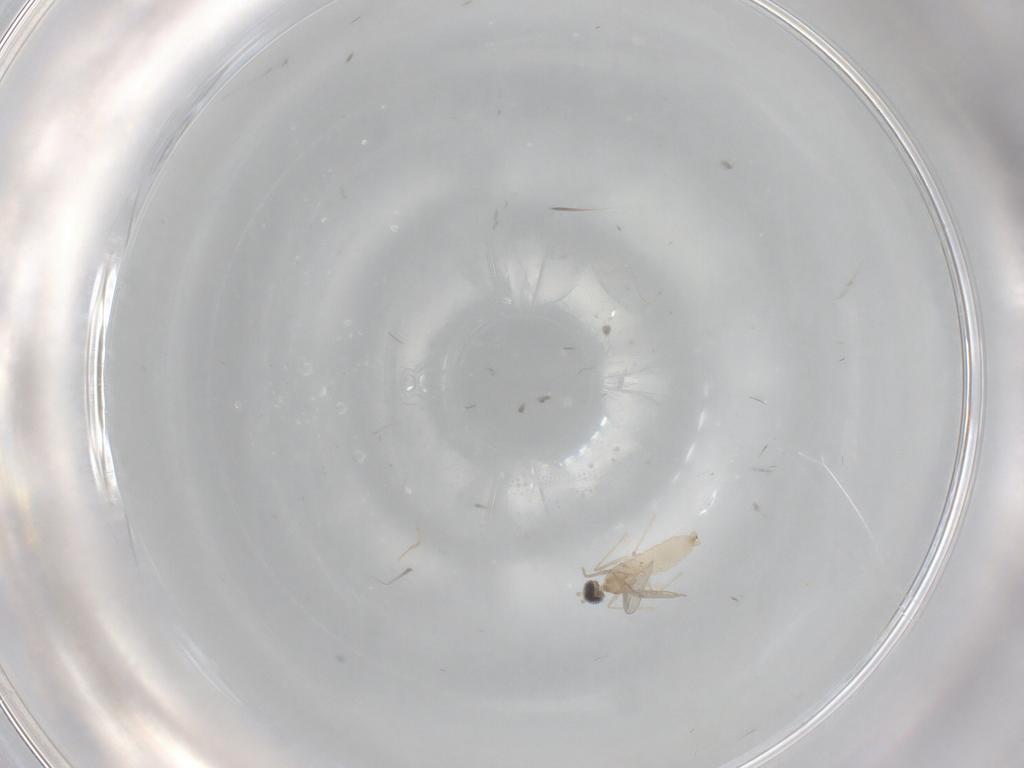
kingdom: Animalia
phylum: Arthropoda
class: Insecta
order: Diptera
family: Cecidomyiidae
